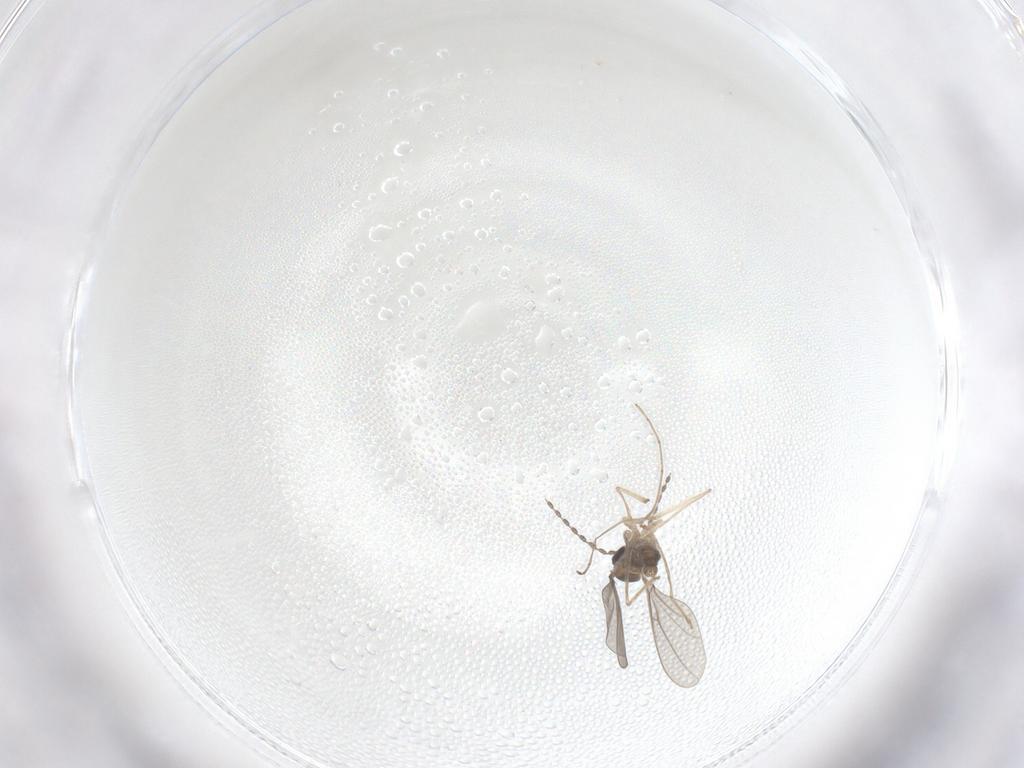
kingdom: Animalia
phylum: Arthropoda
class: Insecta
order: Diptera
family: Cecidomyiidae
